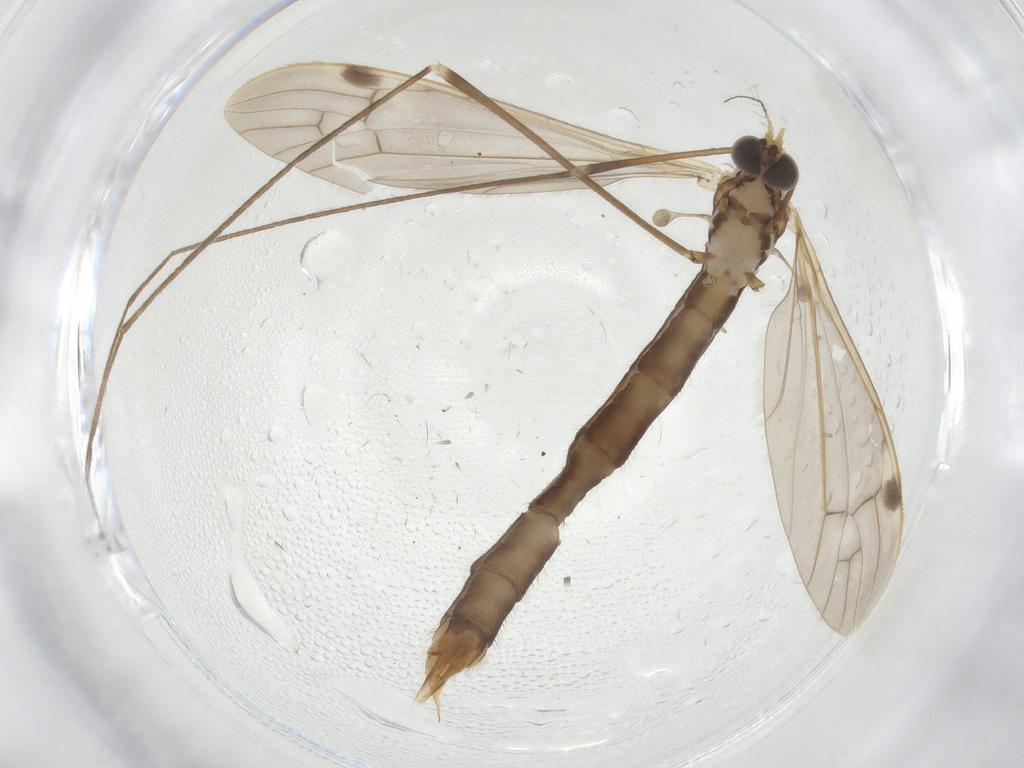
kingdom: Animalia
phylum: Arthropoda
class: Insecta
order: Diptera
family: Limoniidae
